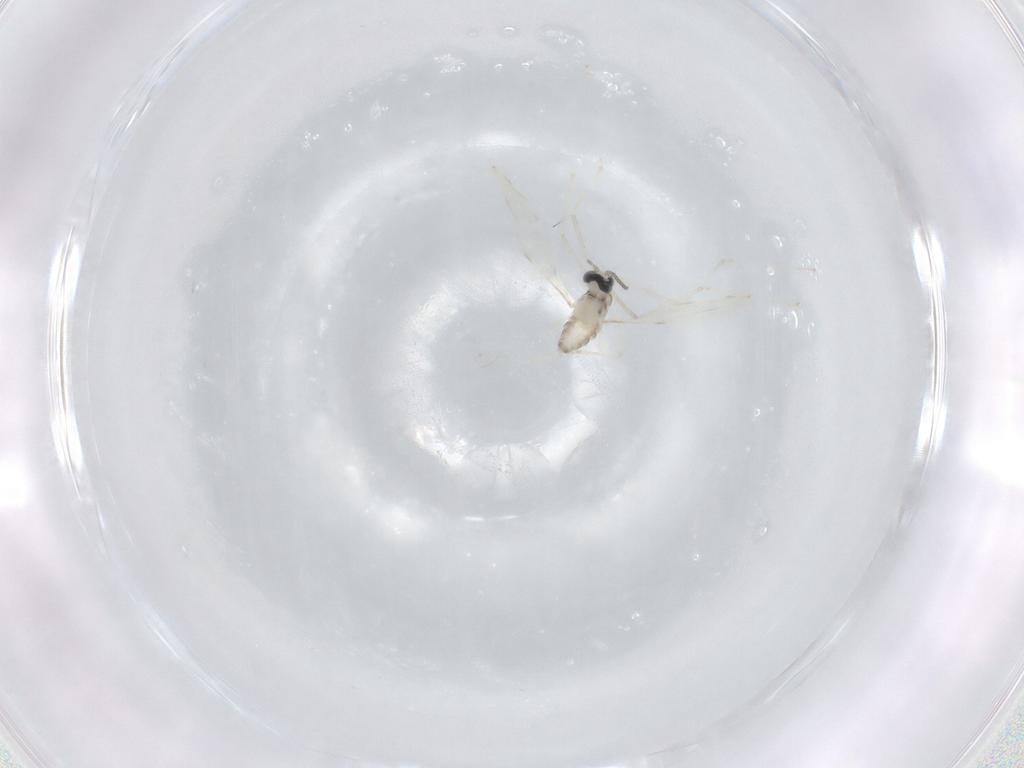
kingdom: Animalia
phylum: Arthropoda
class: Insecta
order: Diptera
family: Cecidomyiidae
